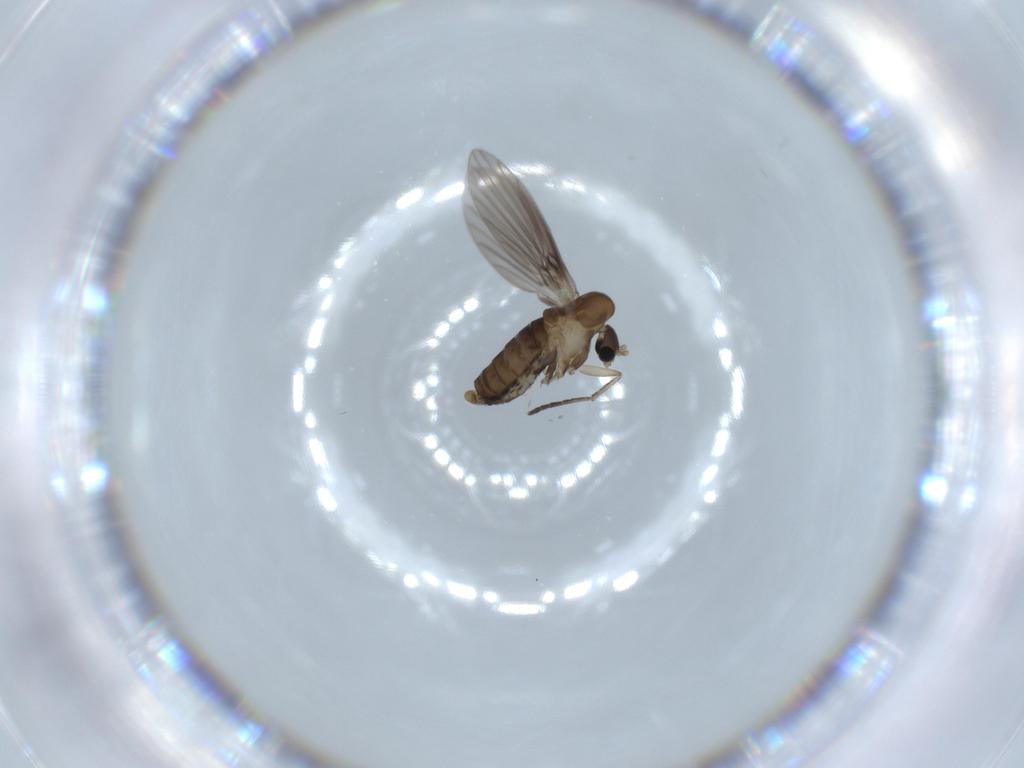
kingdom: Animalia
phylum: Arthropoda
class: Insecta
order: Diptera
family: Psychodidae
